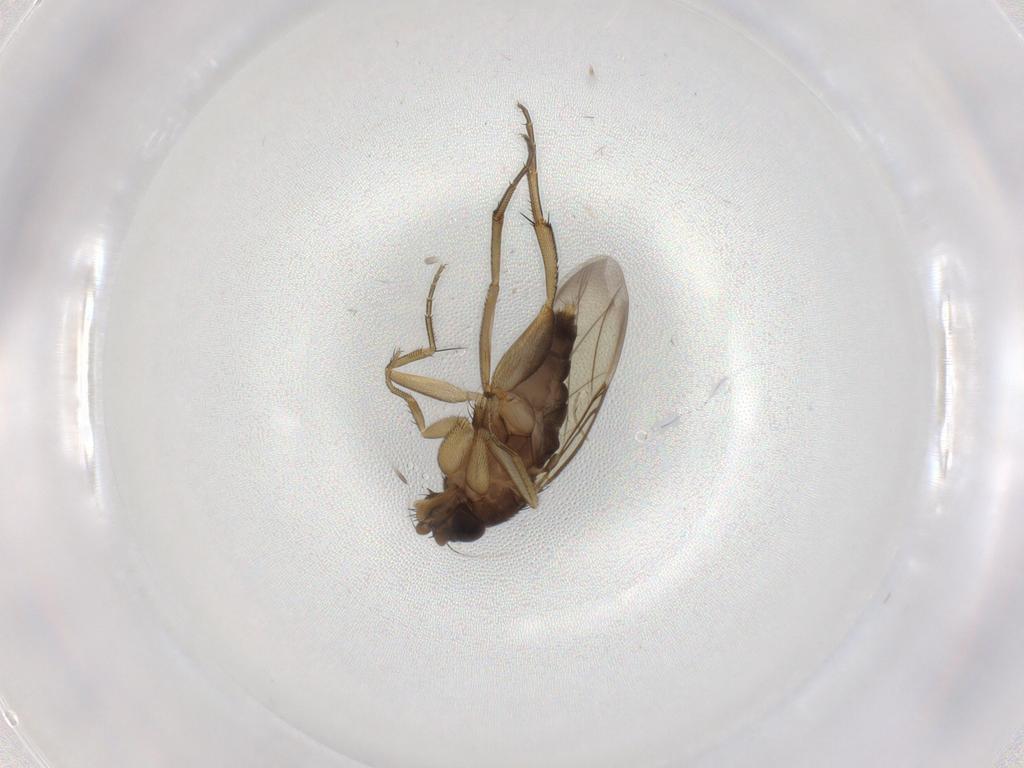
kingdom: Animalia
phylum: Arthropoda
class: Insecta
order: Diptera
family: Phoridae
